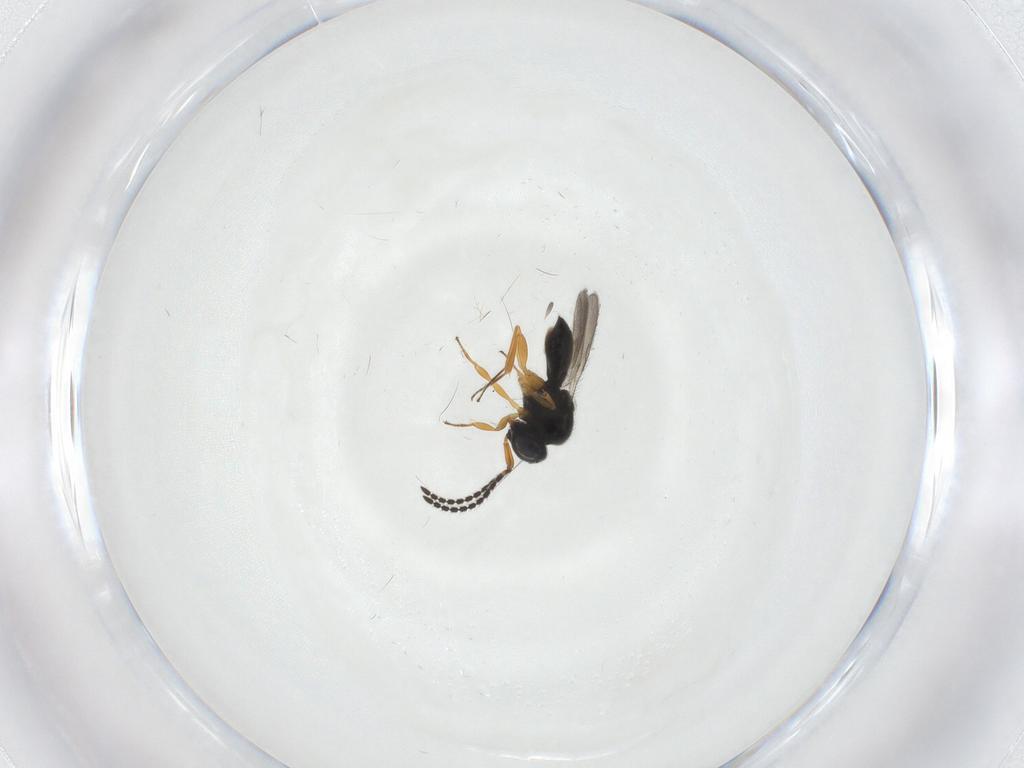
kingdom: Animalia
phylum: Arthropoda
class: Insecta
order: Hymenoptera
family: Scelionidae
